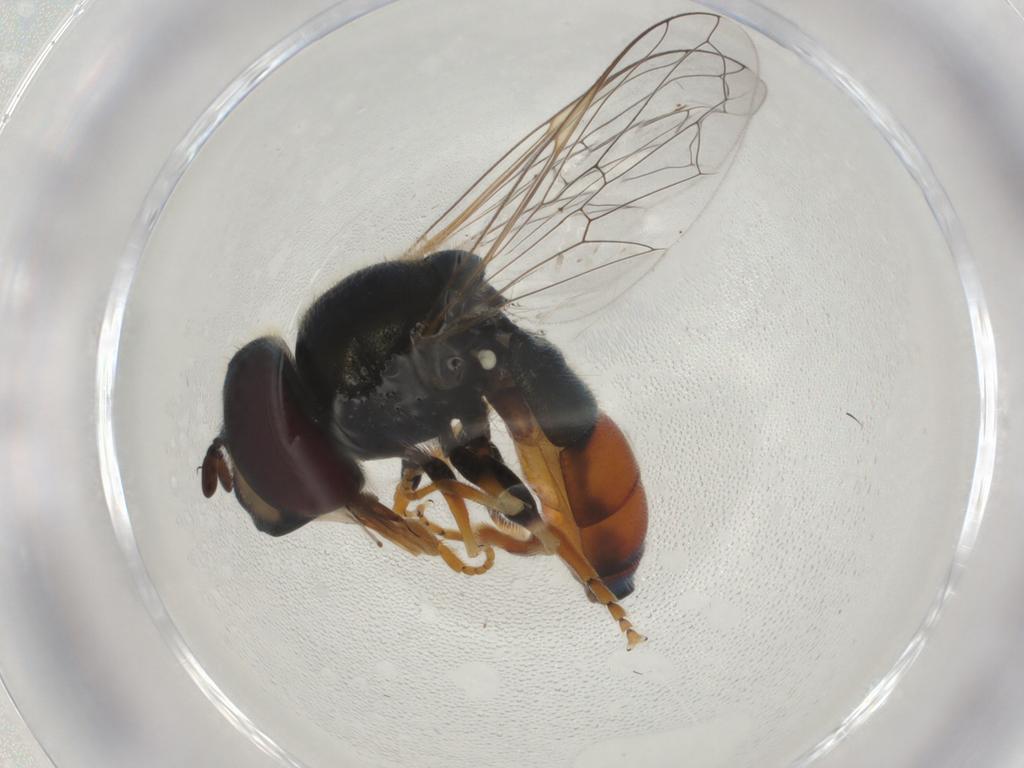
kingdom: Animalia
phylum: Arthropoda
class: Insecta
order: Diptera
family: Syrphidae
